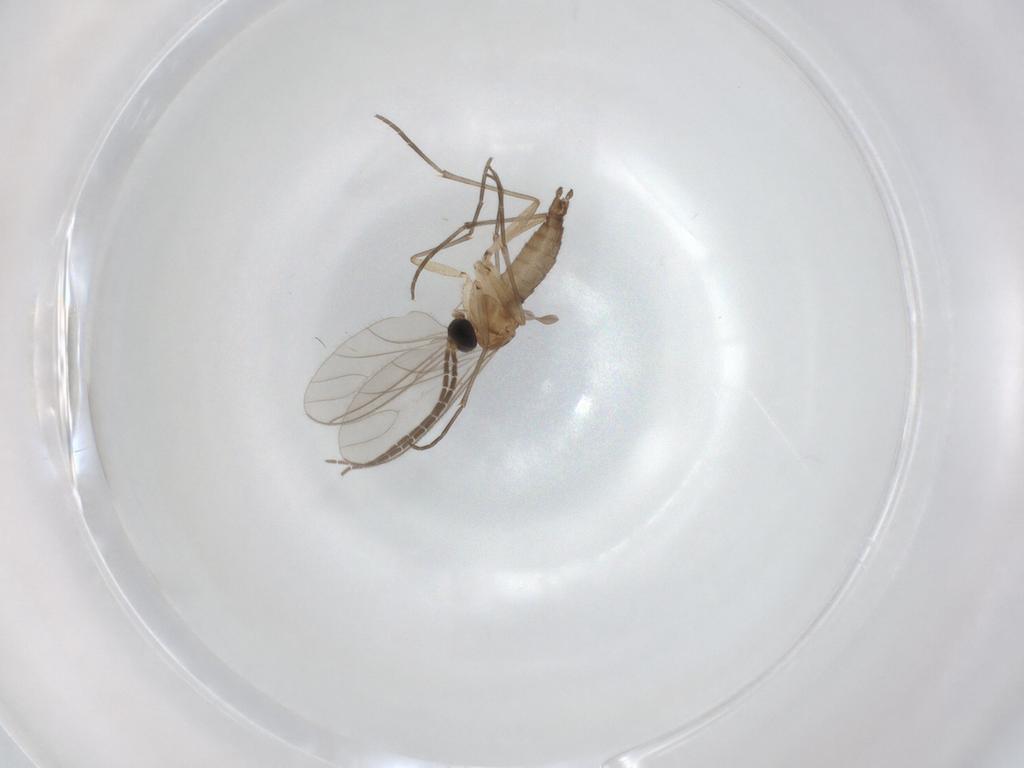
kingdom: Animalia
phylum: Arthropoda
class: Insecta
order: Diptera
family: Sciaridae
